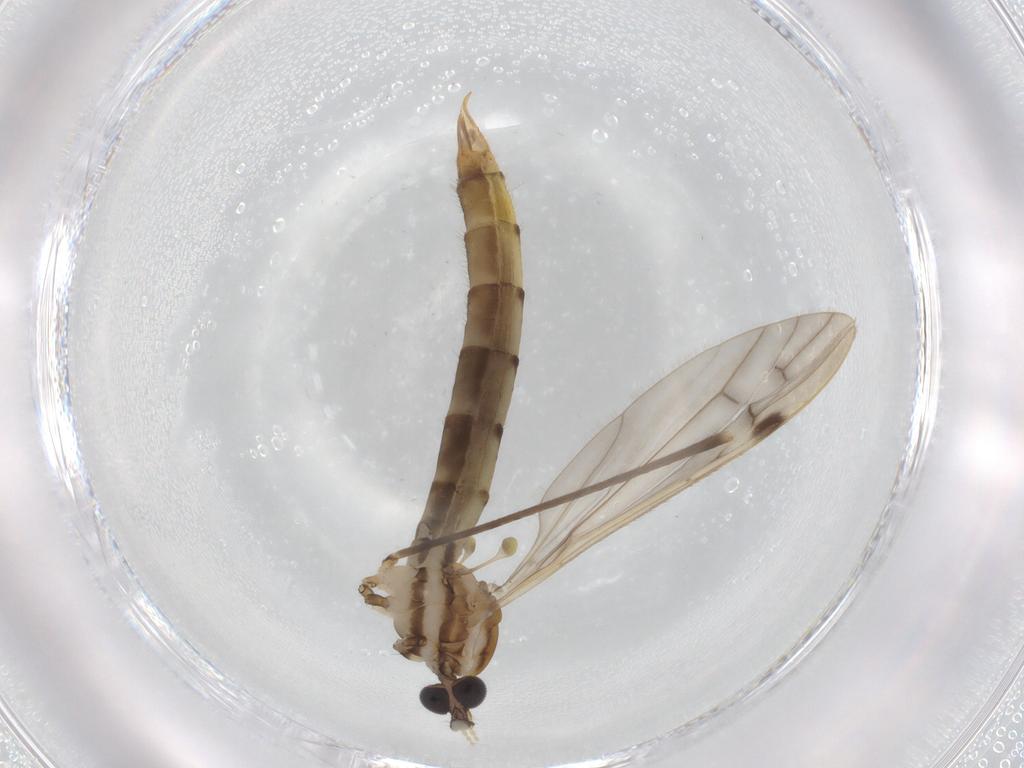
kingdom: Animalia
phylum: Arthropoda
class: Insecta
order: Diptera
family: Limoniidae
